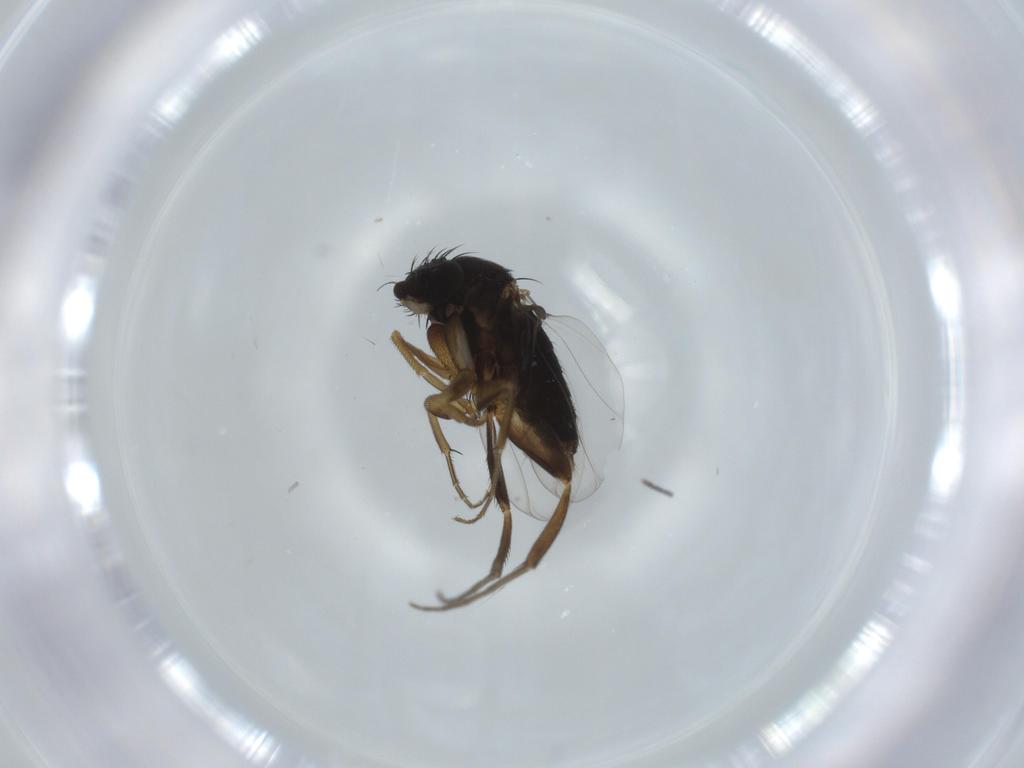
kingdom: Animalia
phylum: Arthropoda
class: Insecta
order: Diptera
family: Phoridae
